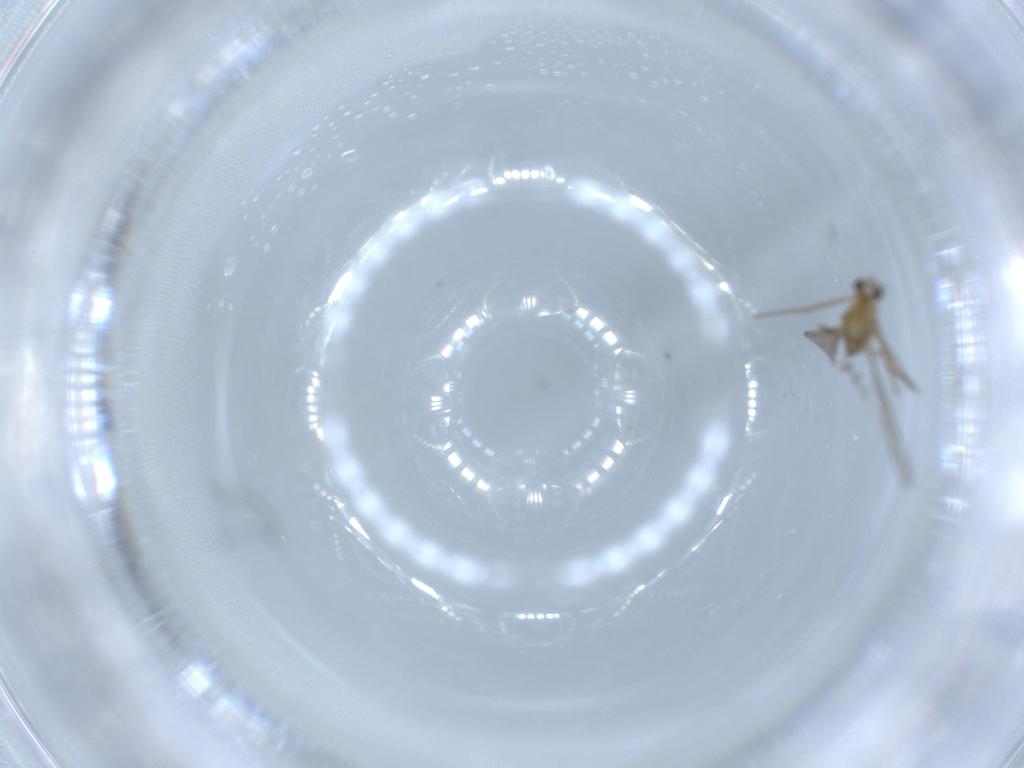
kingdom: Animalia
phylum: Arthropoda
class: Insecta
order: Diptera
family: Chironomidae
